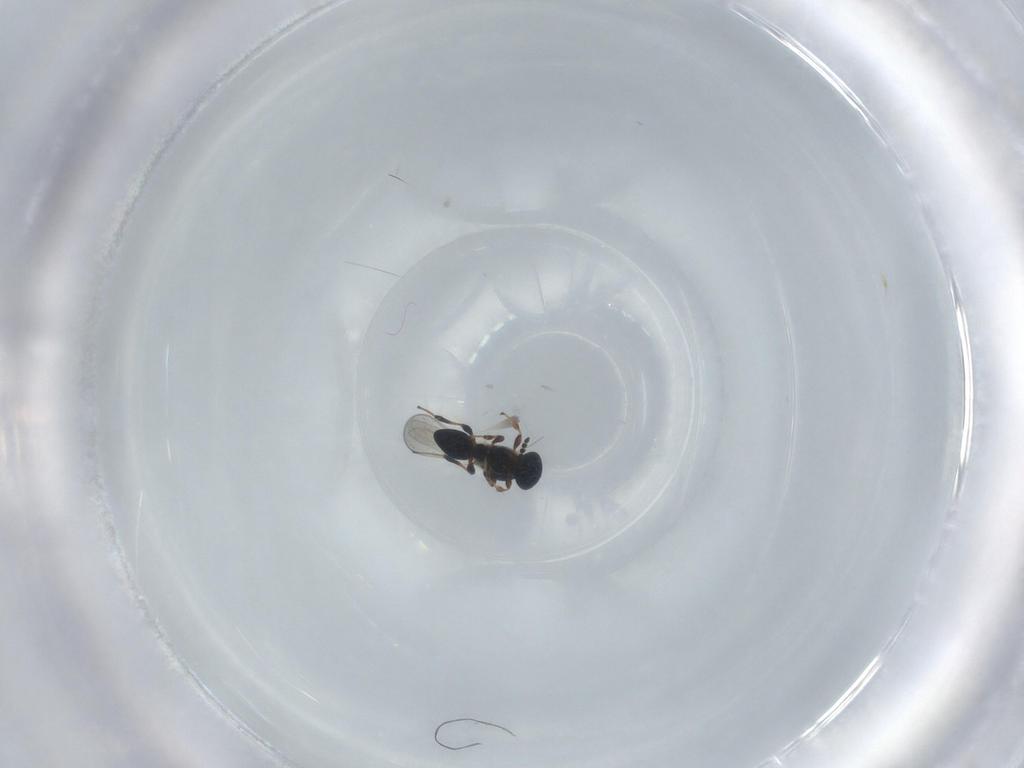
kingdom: Animalia
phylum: Arthropoda
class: Insecta
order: Hymenoptera
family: Platygastridae
